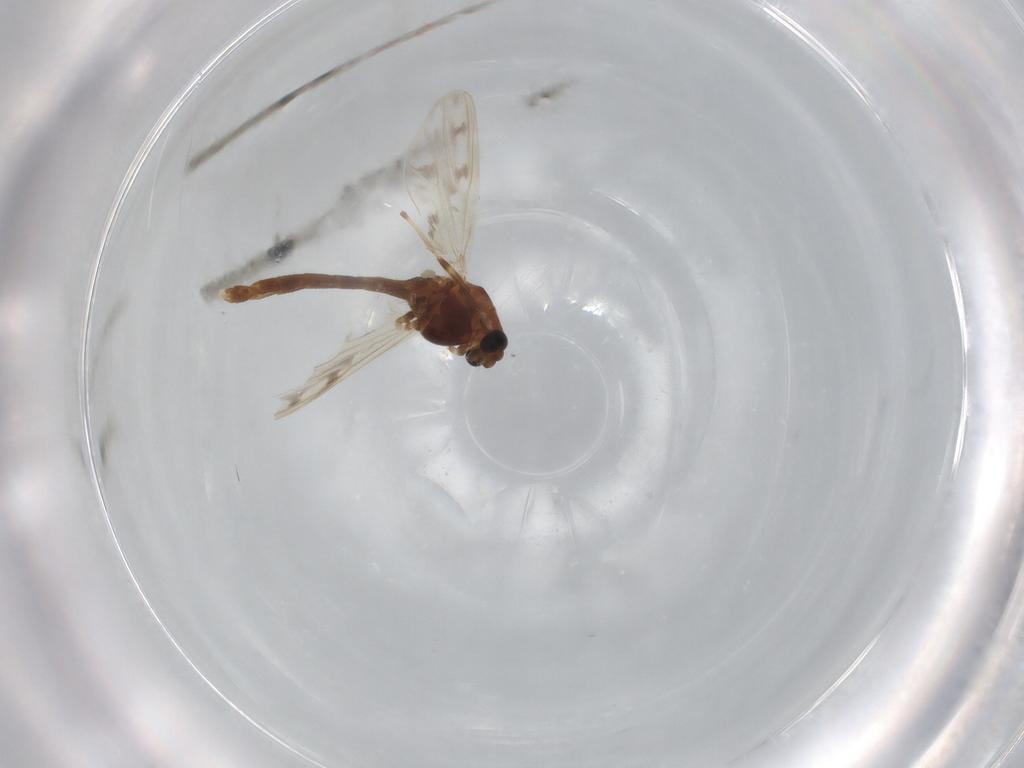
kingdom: Animalia
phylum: Arthropoda
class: Insecta
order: Diptera
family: Chironomidae
